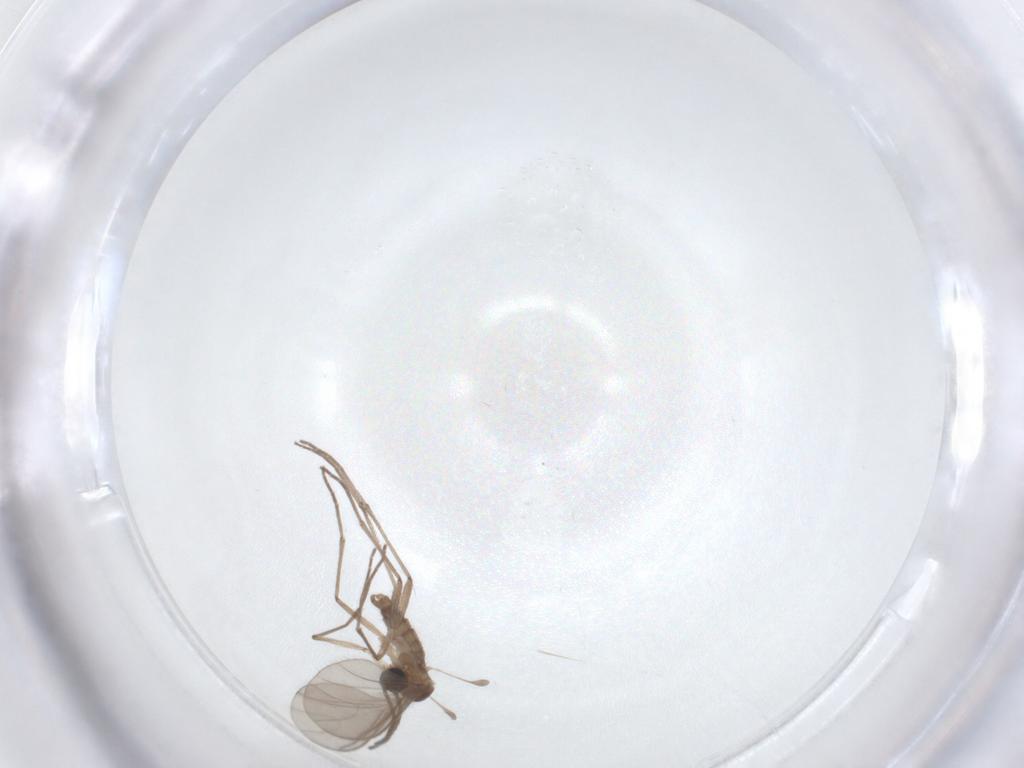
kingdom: Animalia
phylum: Arthropoda
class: Insecta
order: Diptera
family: Sciaridae
